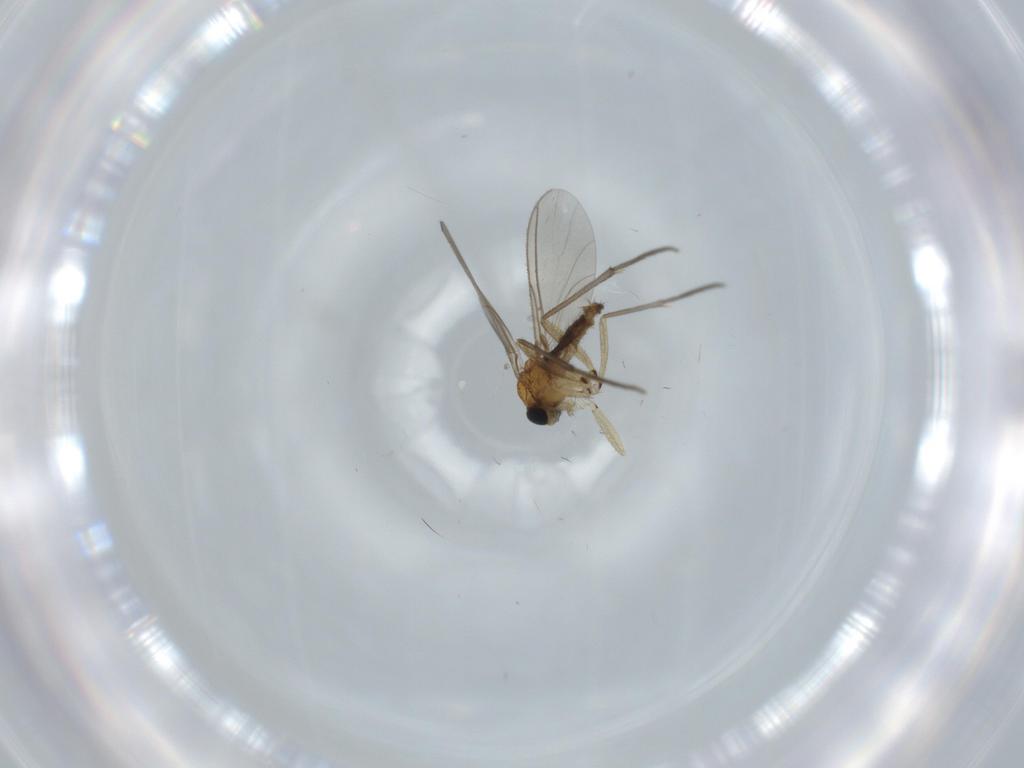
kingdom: Animalia
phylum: Arthropoda
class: Insecta
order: Diptera
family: Sciaridae
